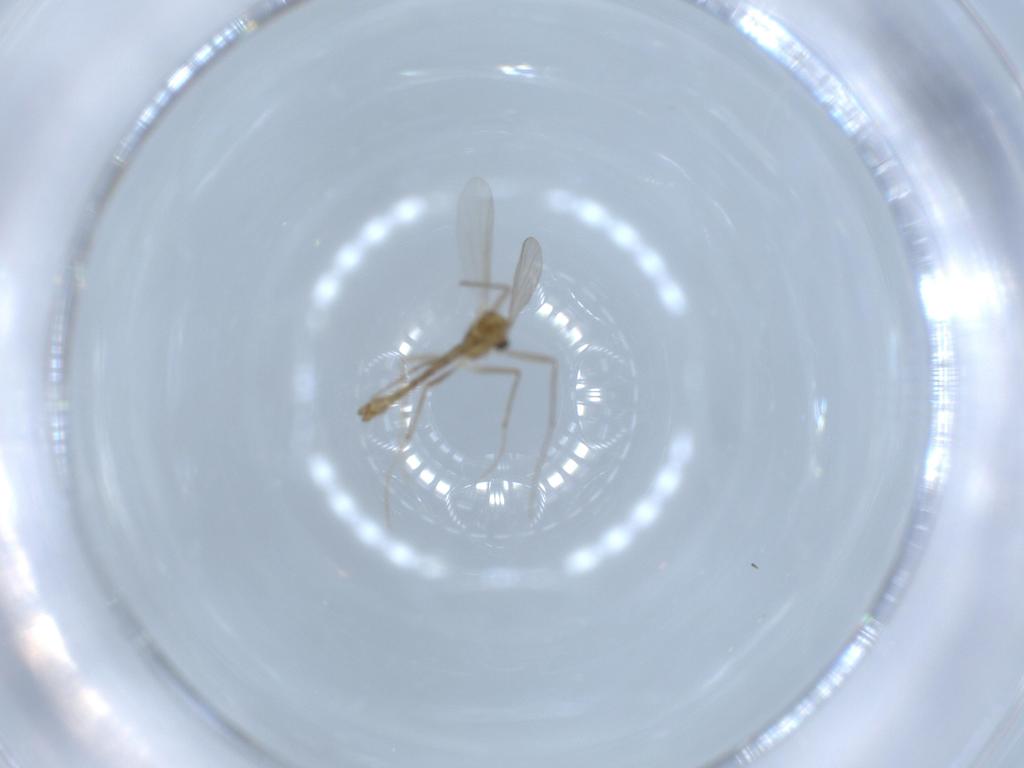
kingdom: Animalia
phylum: Arthropoda
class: Insecta
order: Diptera
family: Chironomidae
